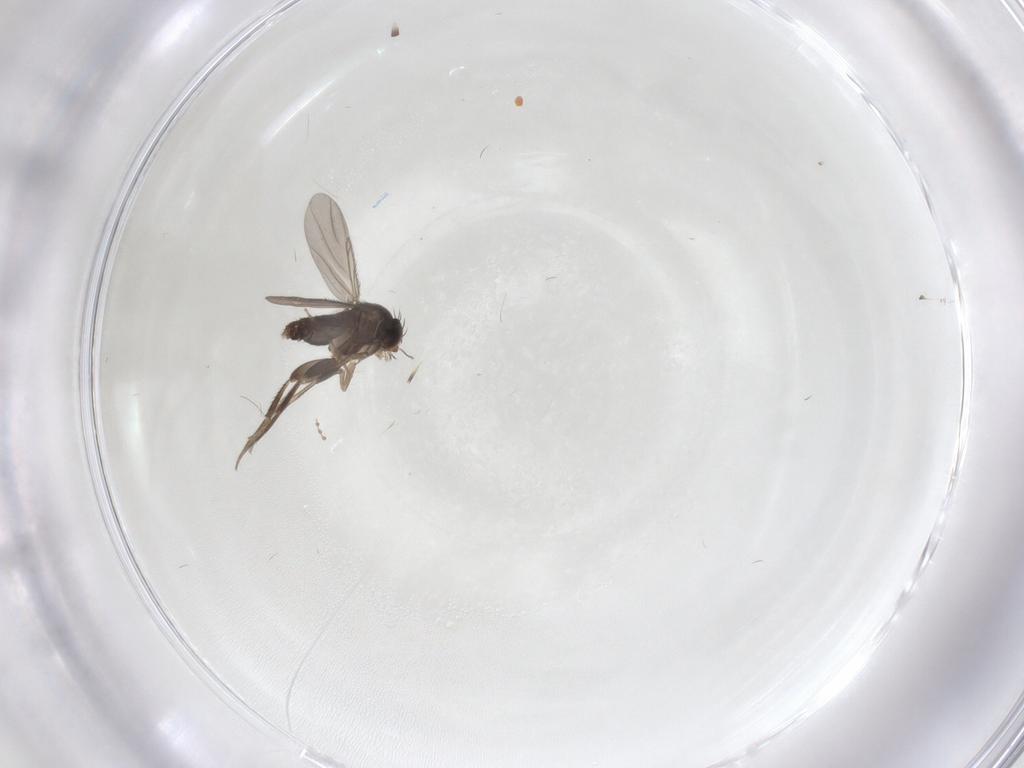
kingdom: Animalia
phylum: Arthropoda
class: Insecta
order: Diptera
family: Phoridae
